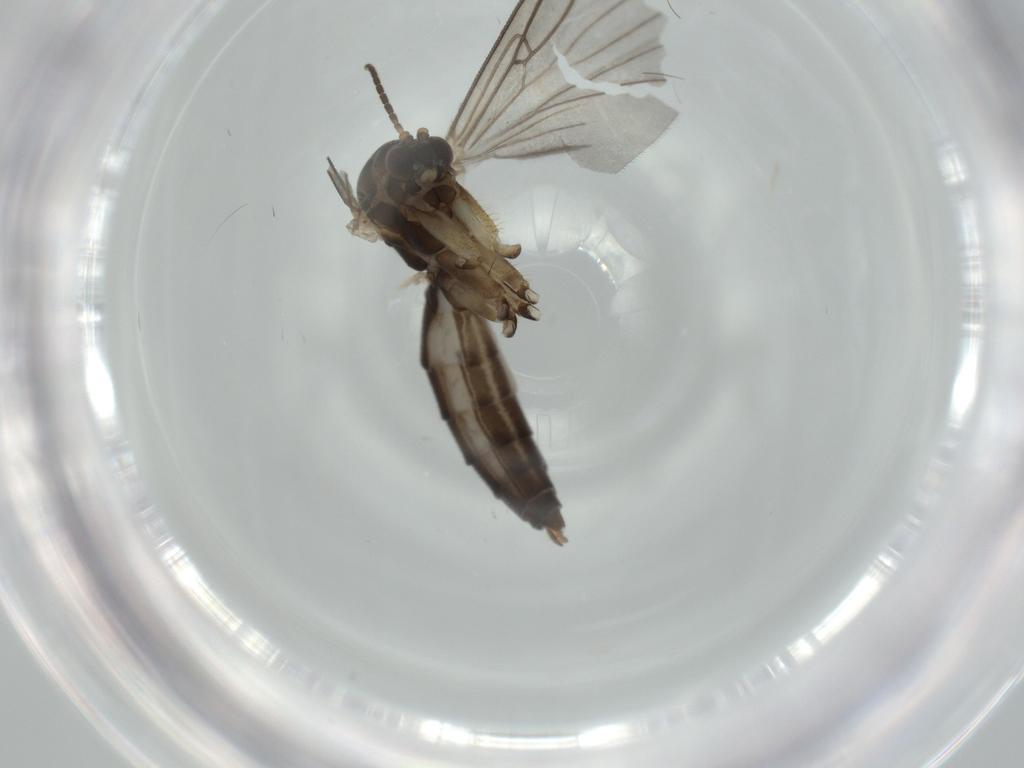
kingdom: Animalia
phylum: Arthropoda
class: Insecta
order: Diptera
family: Mycetophilidae
